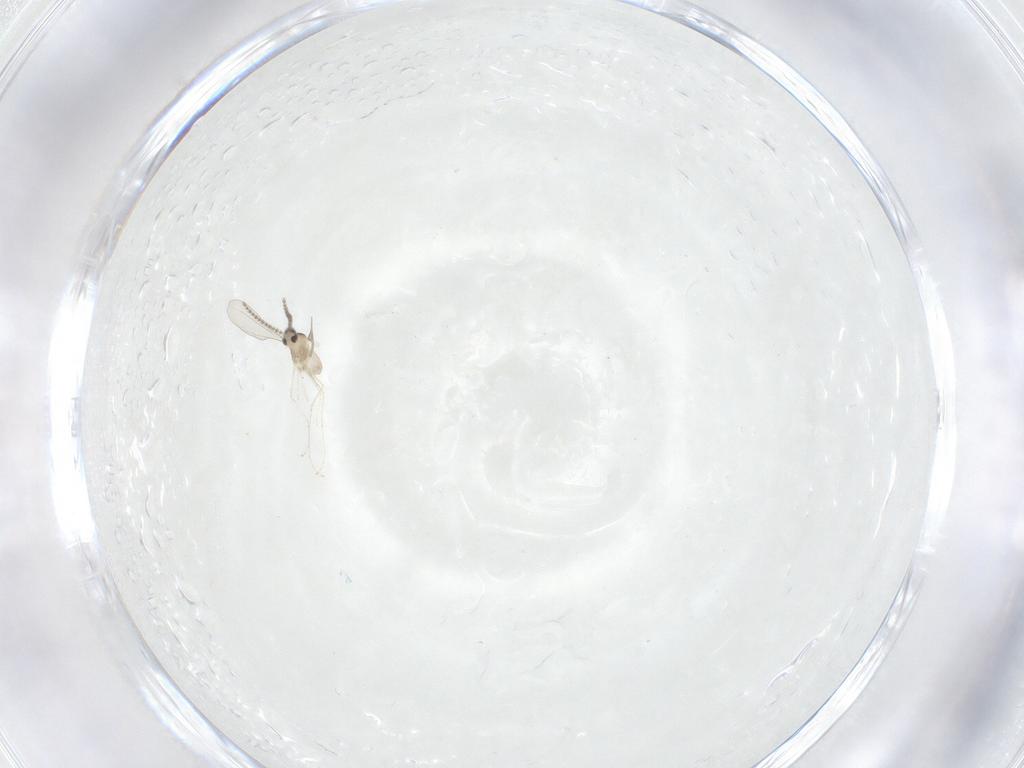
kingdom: Animalia
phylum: Arthropoda
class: Insecta
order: Diptera
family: Cecidomyiidae
